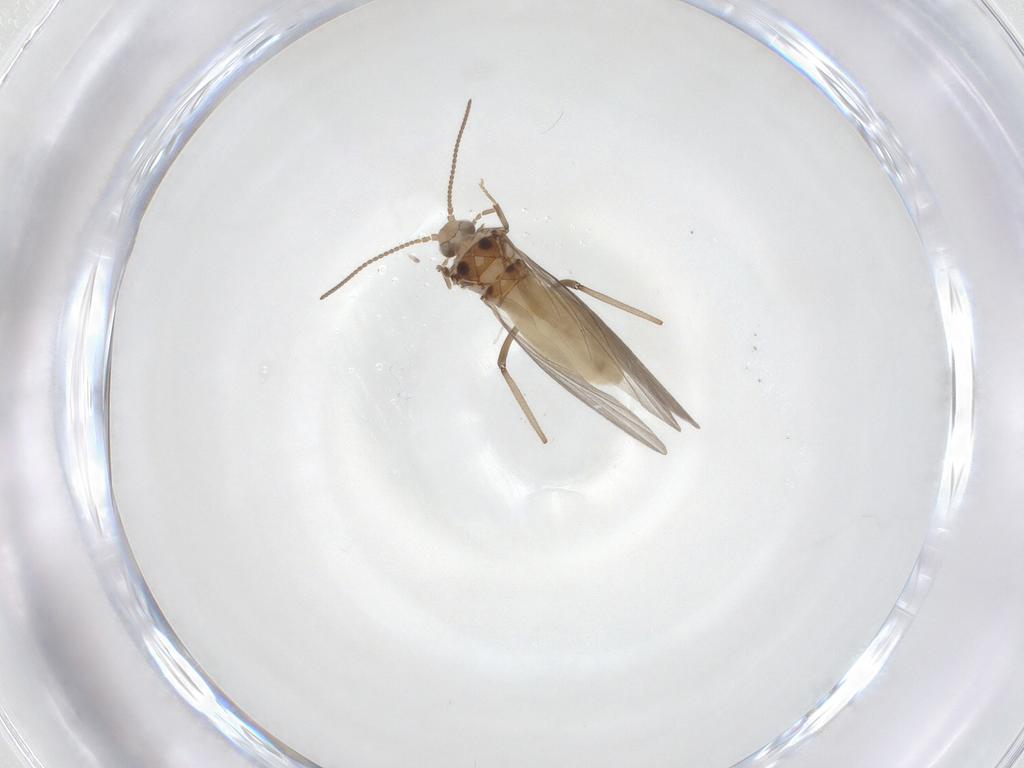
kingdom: Animalia
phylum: Arthropoda
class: Insecta
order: Neuroptera
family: Coniopterygidae
